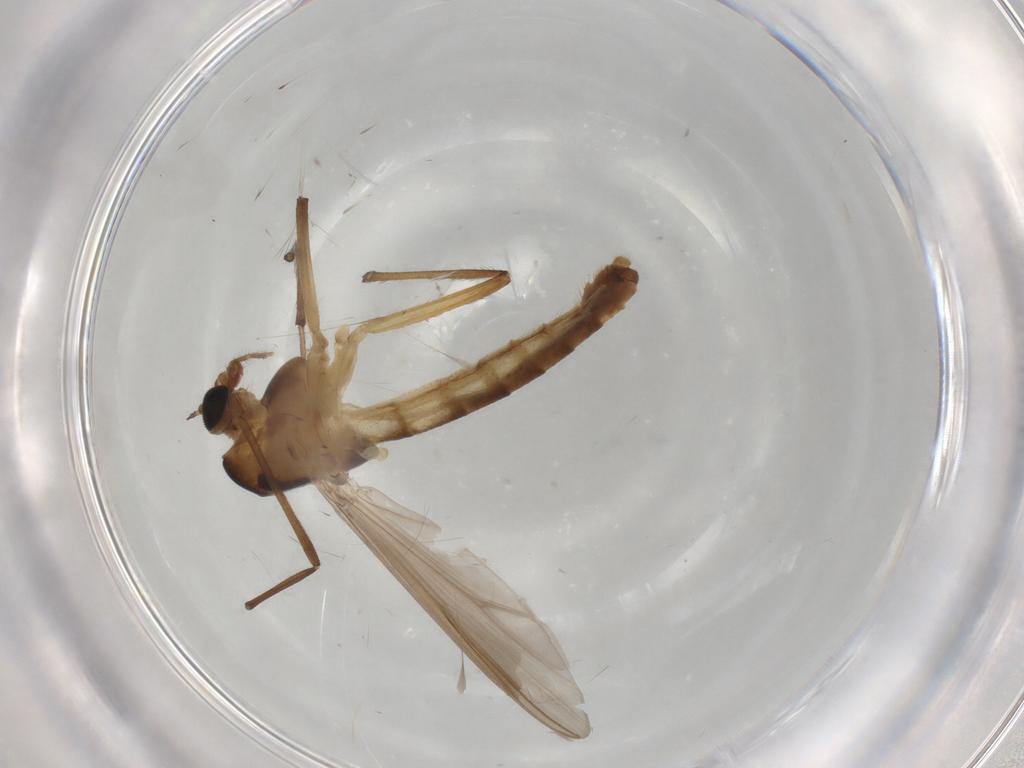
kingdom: Animalia
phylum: Arthropoda
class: Insecta
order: Diptera
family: Chironomidae
